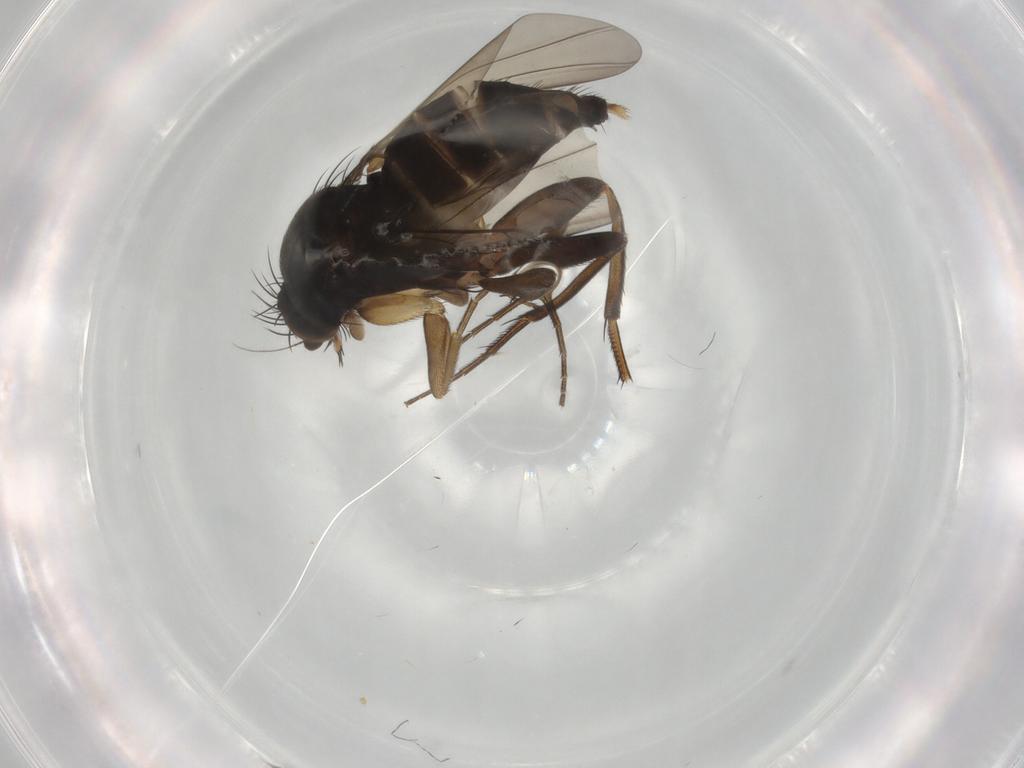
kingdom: Animalia
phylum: Arthropoda
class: Insecta
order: Diptera
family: Phoridae
